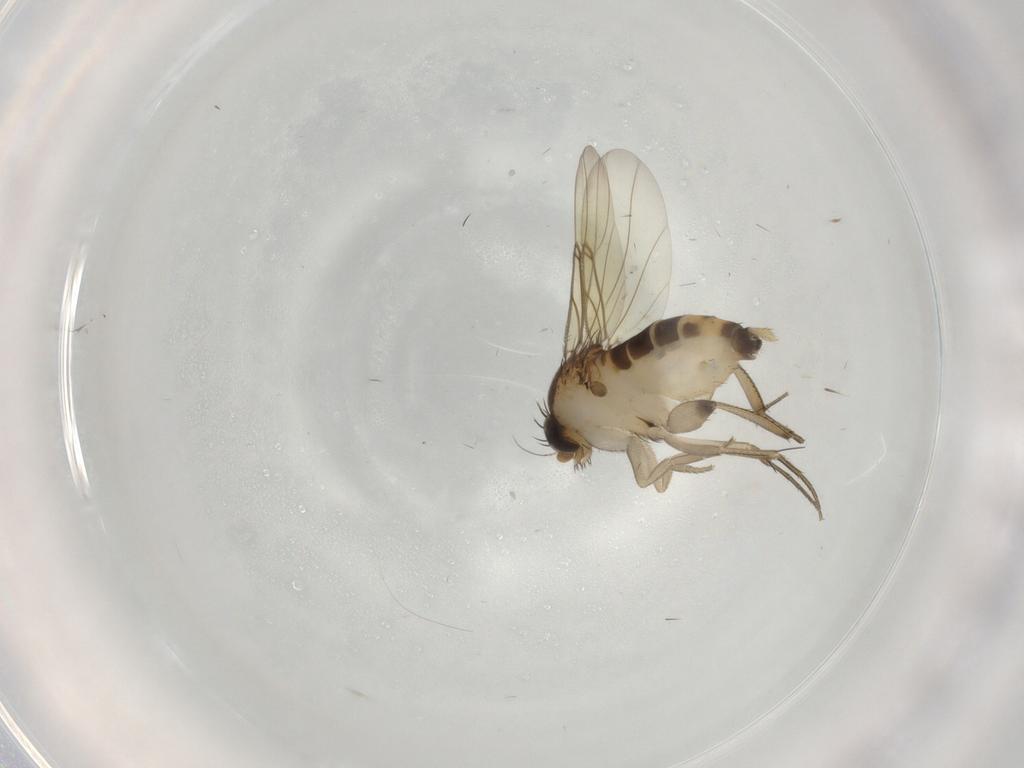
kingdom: Animalia
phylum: Arthropoda
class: Insecta
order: Diptera
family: Phoridae
